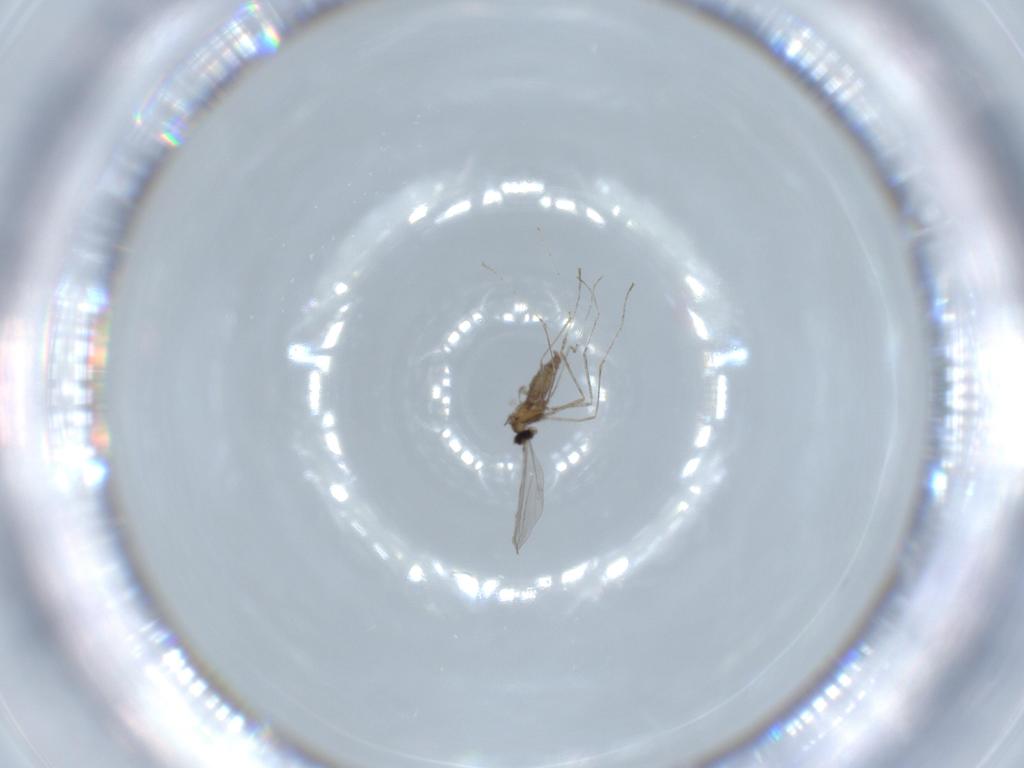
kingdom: Animalia
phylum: Arthropoda
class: Insecta
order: Diptera
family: Cecidomyiidae
